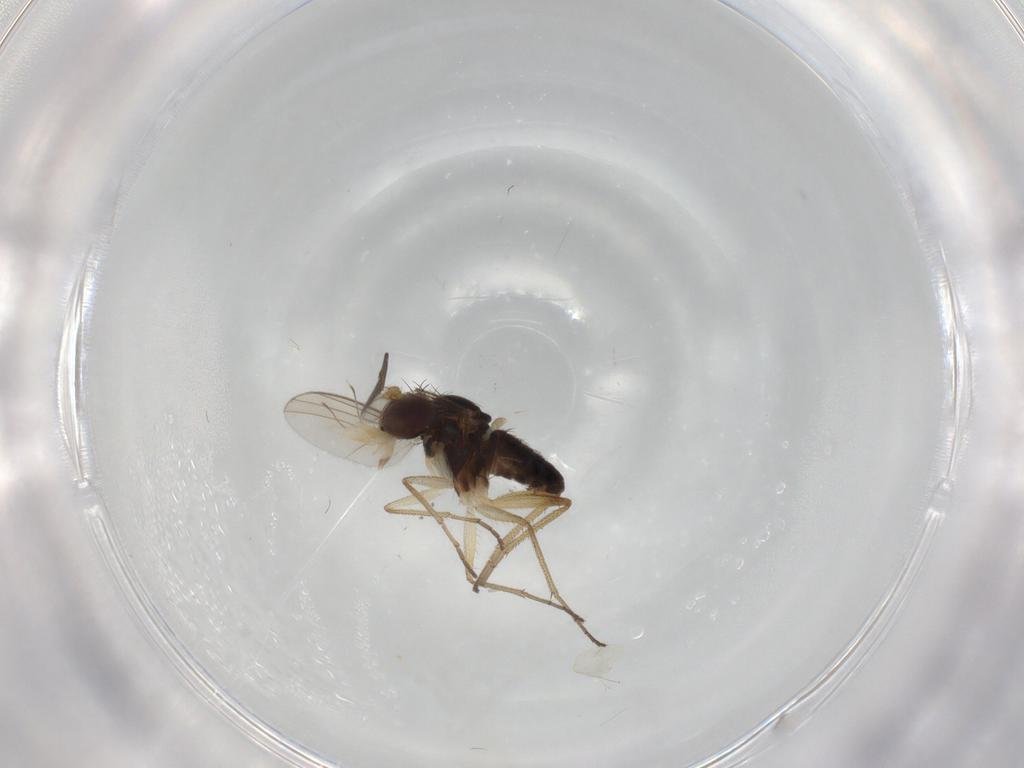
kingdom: Animalia
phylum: Arthropoda
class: Insecta
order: Diptera
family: Dolichopodidae
